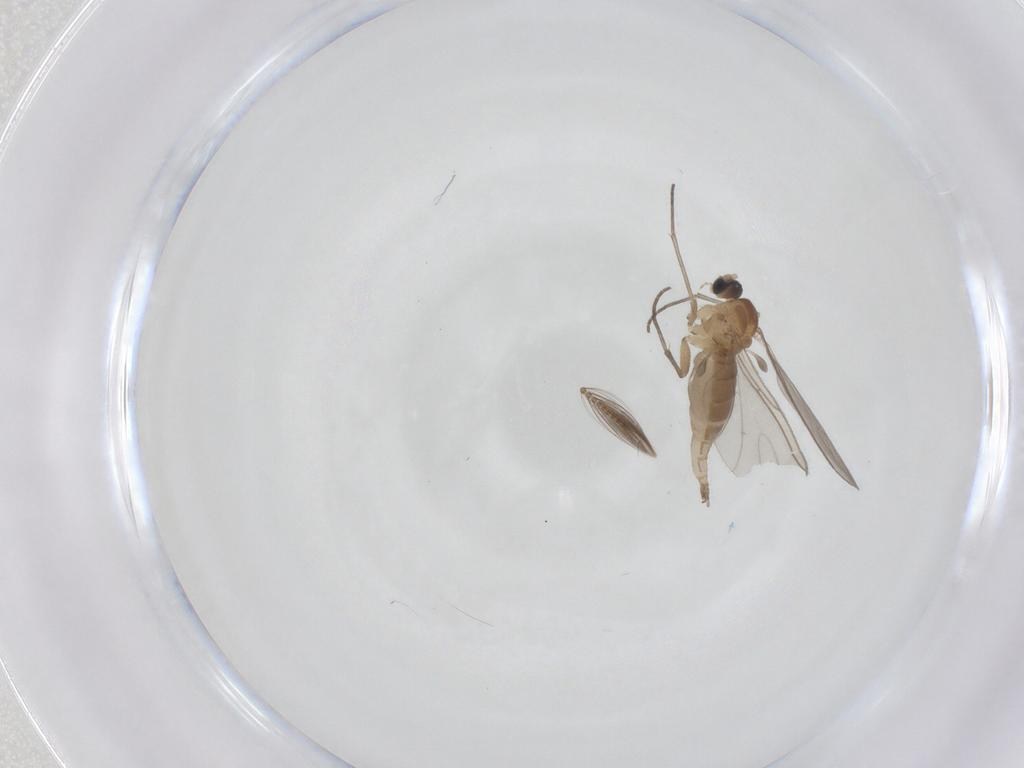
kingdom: Animalia
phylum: Arthropoda
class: Insecta
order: Diptera
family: Sciaridae
